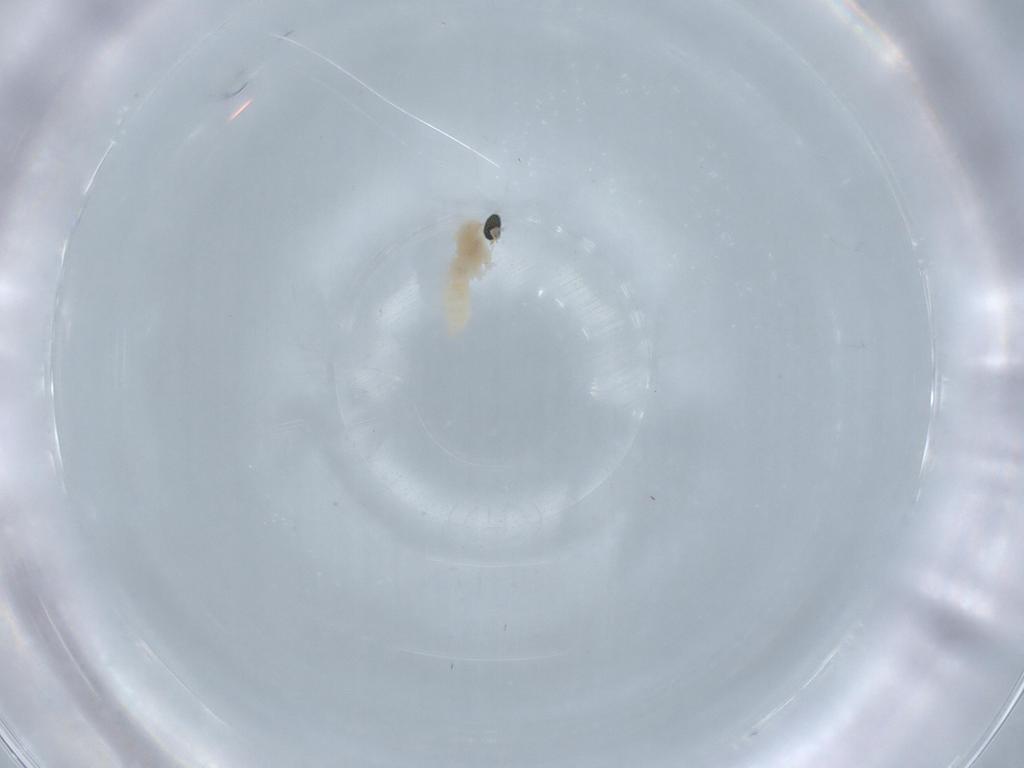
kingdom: Animalia
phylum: Arthropoda
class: Insecta
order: Diptera
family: Cecidomyiidae
